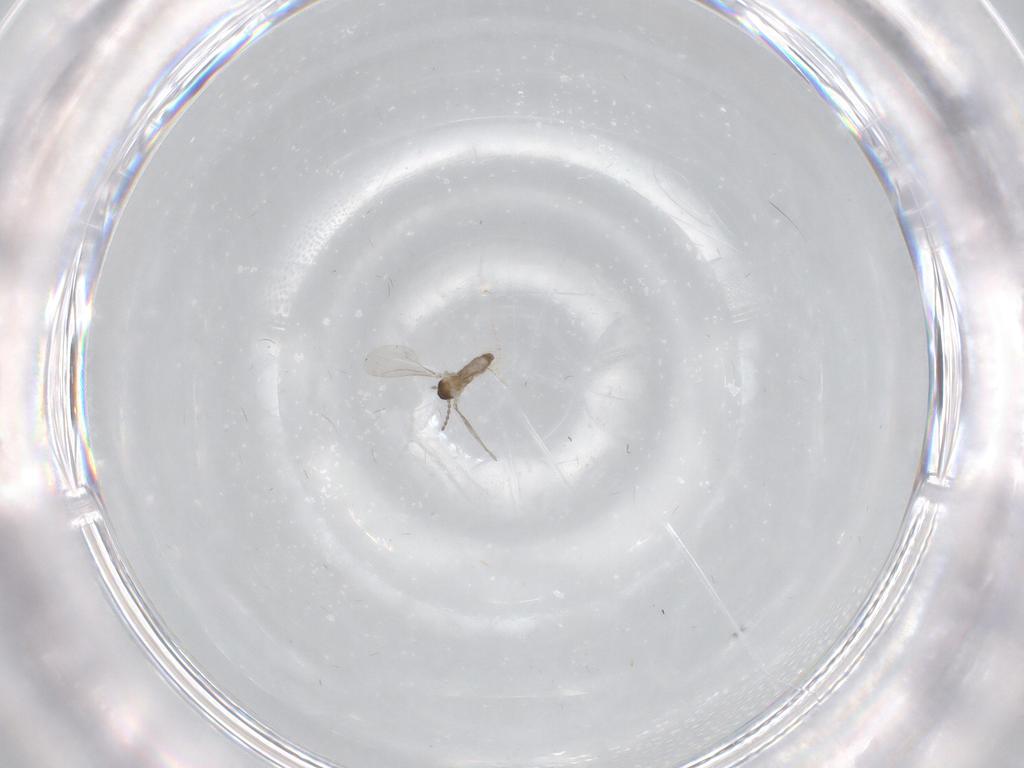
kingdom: Animalia
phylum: Arthropoda
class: Insecta
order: Diptera
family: Cecidomyiidae
